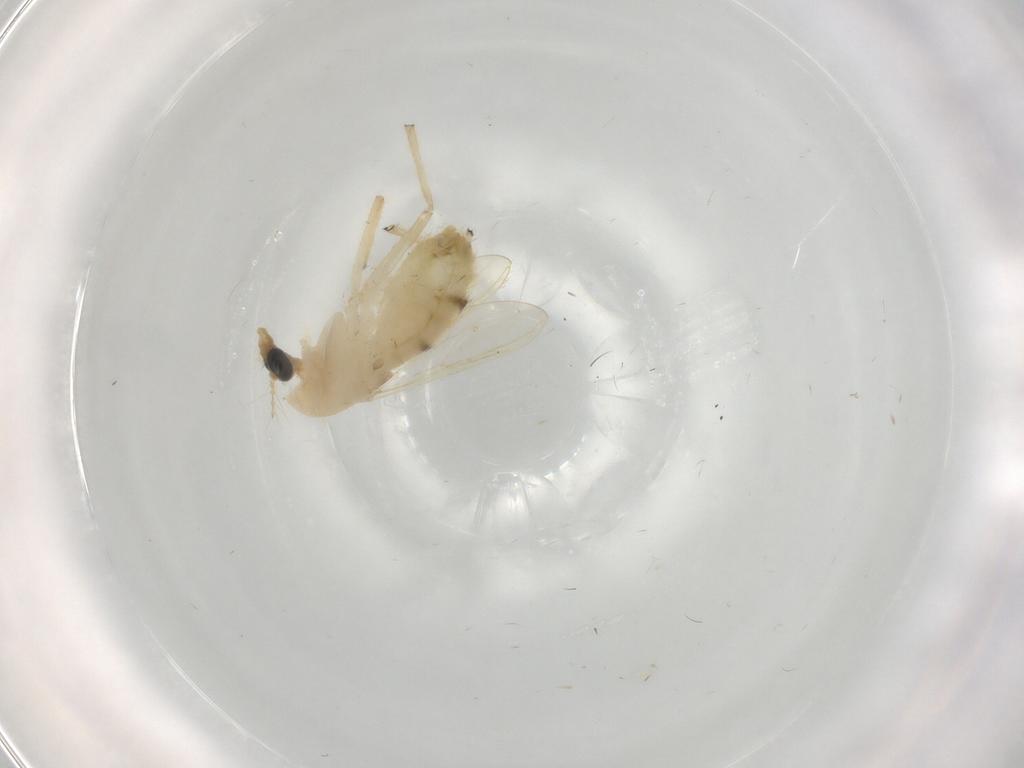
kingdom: Animalia
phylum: Arthropoda
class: Insecta
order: Diptera
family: Chironomidae
